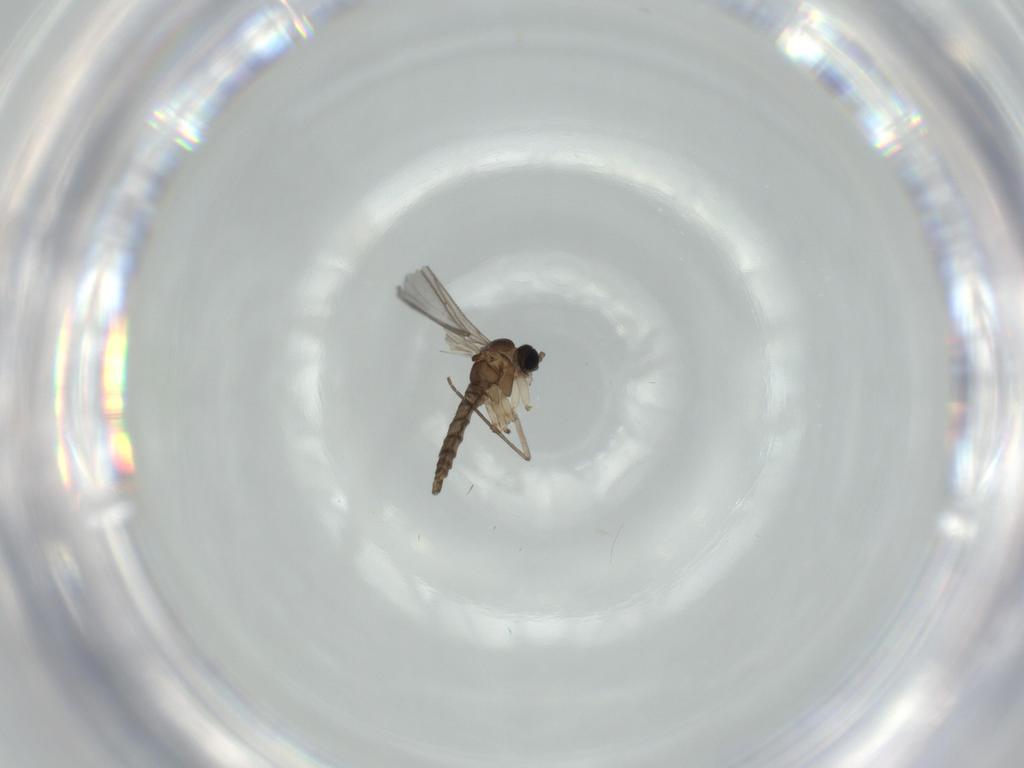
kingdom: Animalia
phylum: Arthropoda
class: Insecta
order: Diptera
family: Sciaridae
